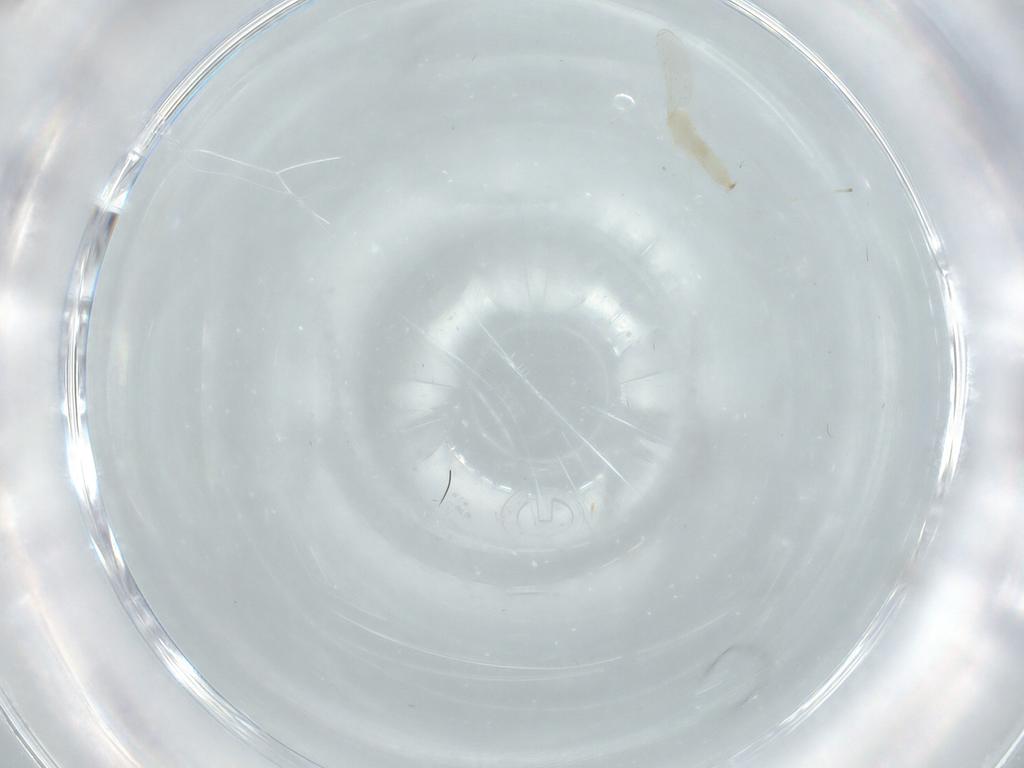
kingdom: Animalia
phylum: Arthropoda
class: Insecta
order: Diptera
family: Cecidomyiidae
